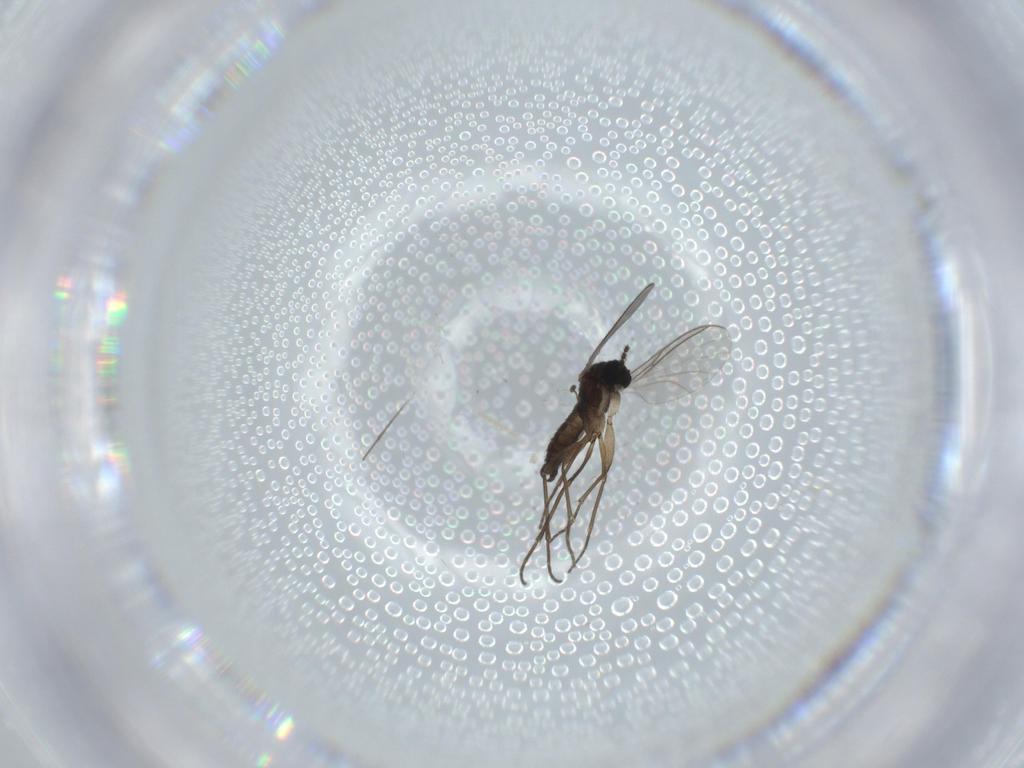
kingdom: Animalia
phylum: Arthropoda
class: Insecta
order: Diptera
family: Sciaridae
